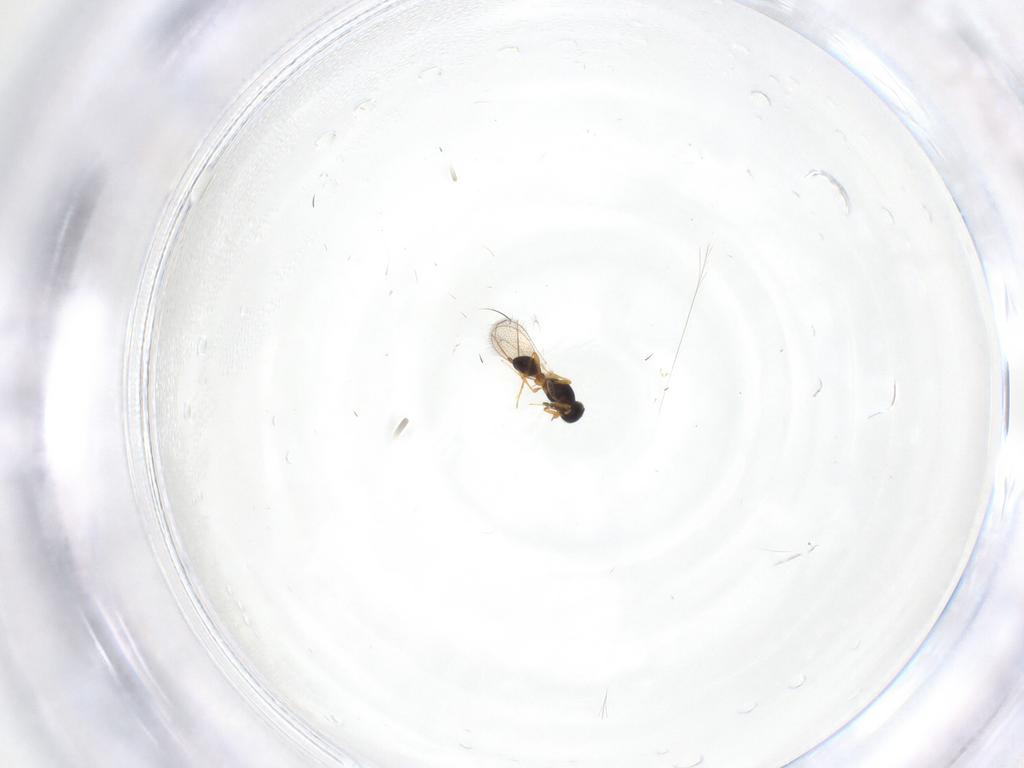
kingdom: Animalia
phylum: Arthropoda
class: Insecta
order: Hymenoptera
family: Platygastridae
